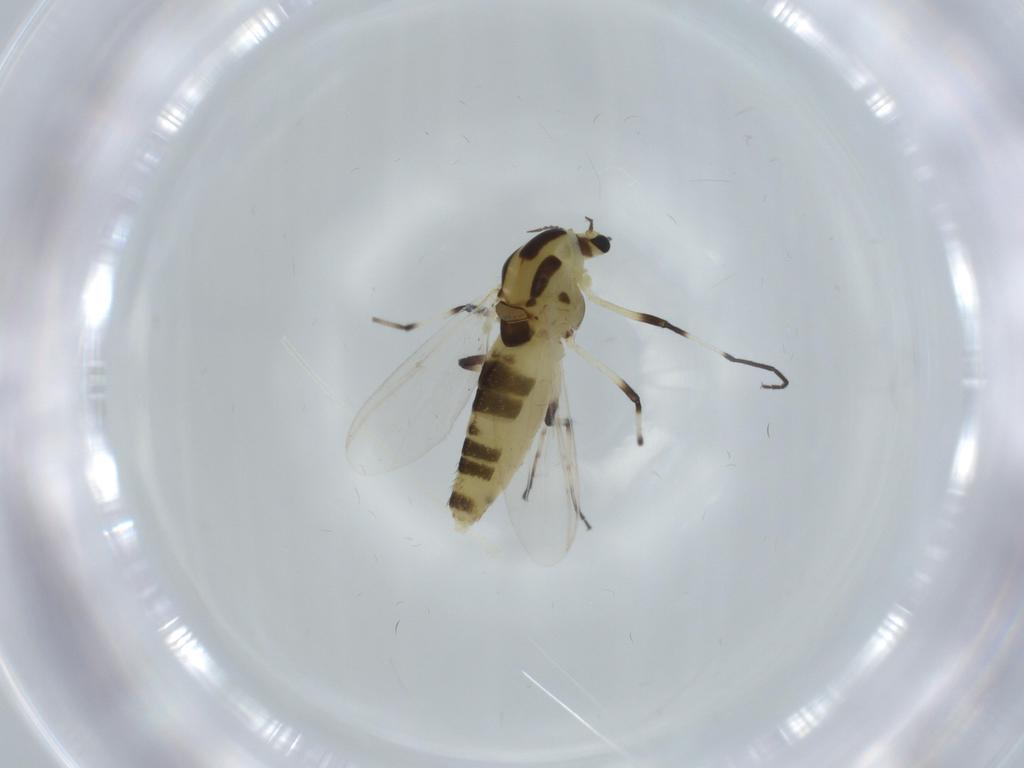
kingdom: Animalia
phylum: Arthropoda
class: Insecta
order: Diptera
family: Chironomidae
